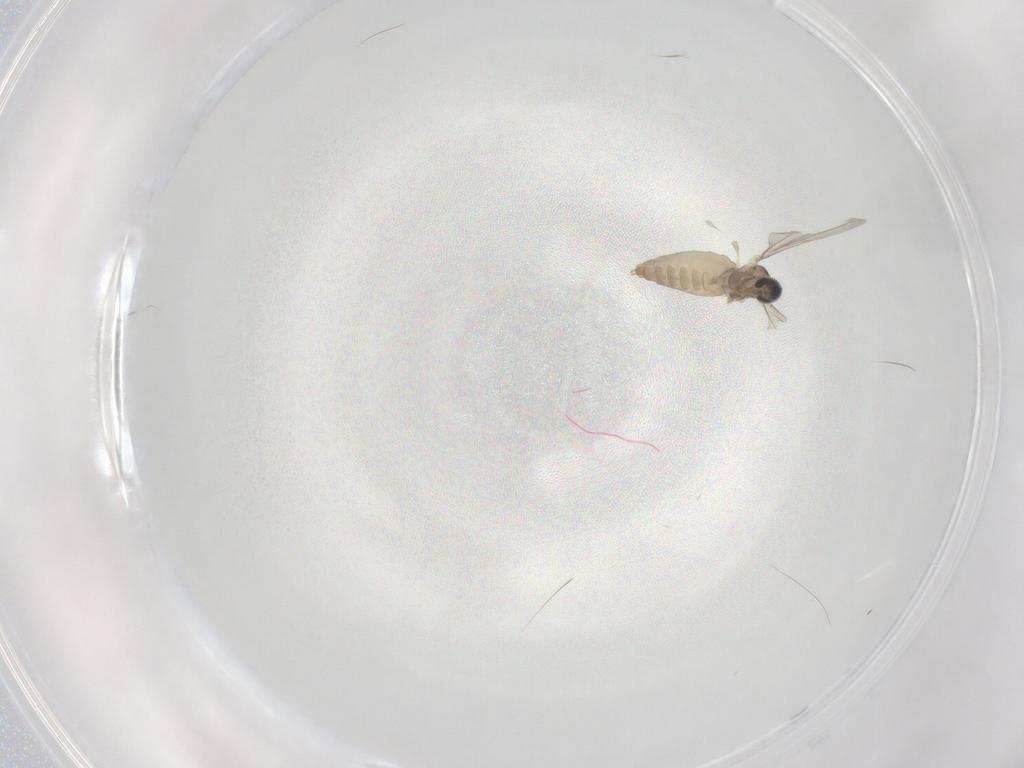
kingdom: Animalia
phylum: Arthropoda
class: Insecta
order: Diptera
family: Cecidomyiidae
